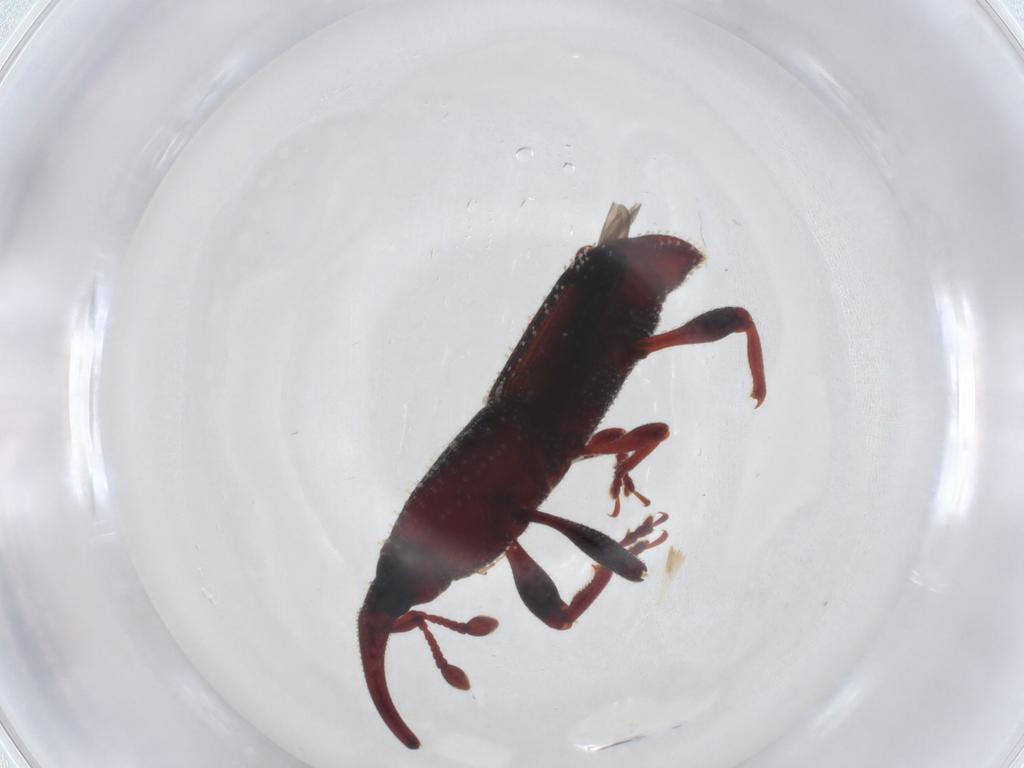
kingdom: Animalia
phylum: Arthropoda
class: Insecta
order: Coleoptera
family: Curculionidae
